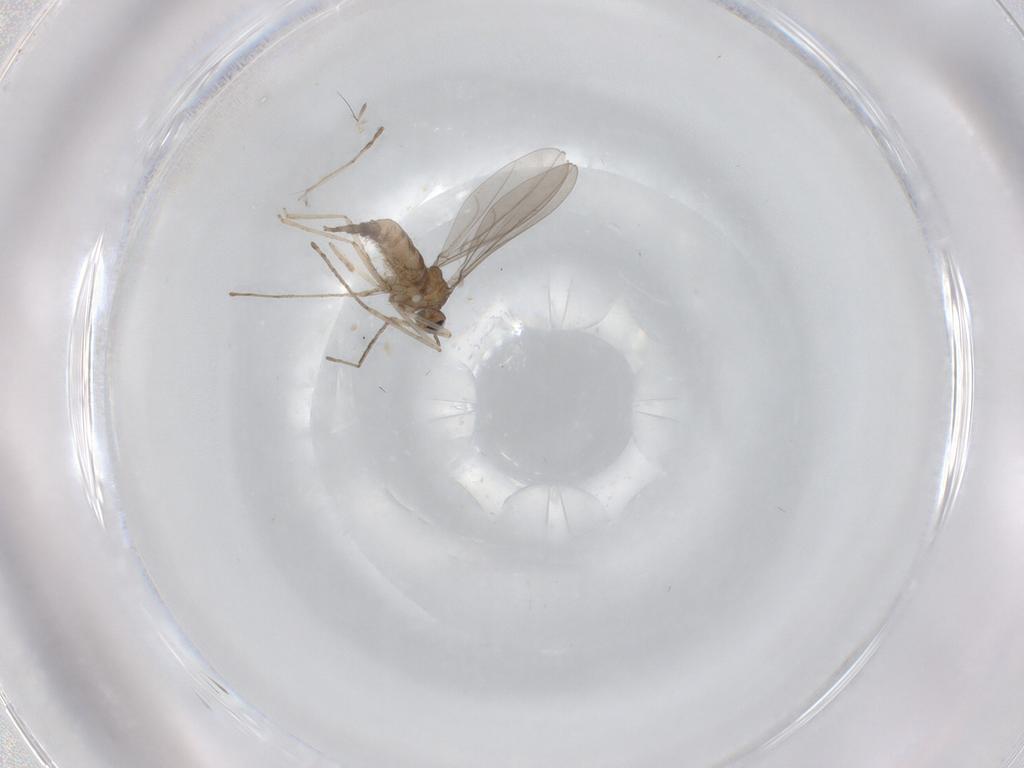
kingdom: Animalia
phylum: Arthropoda
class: Insecta
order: Diptera
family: Cecidomyiidae
